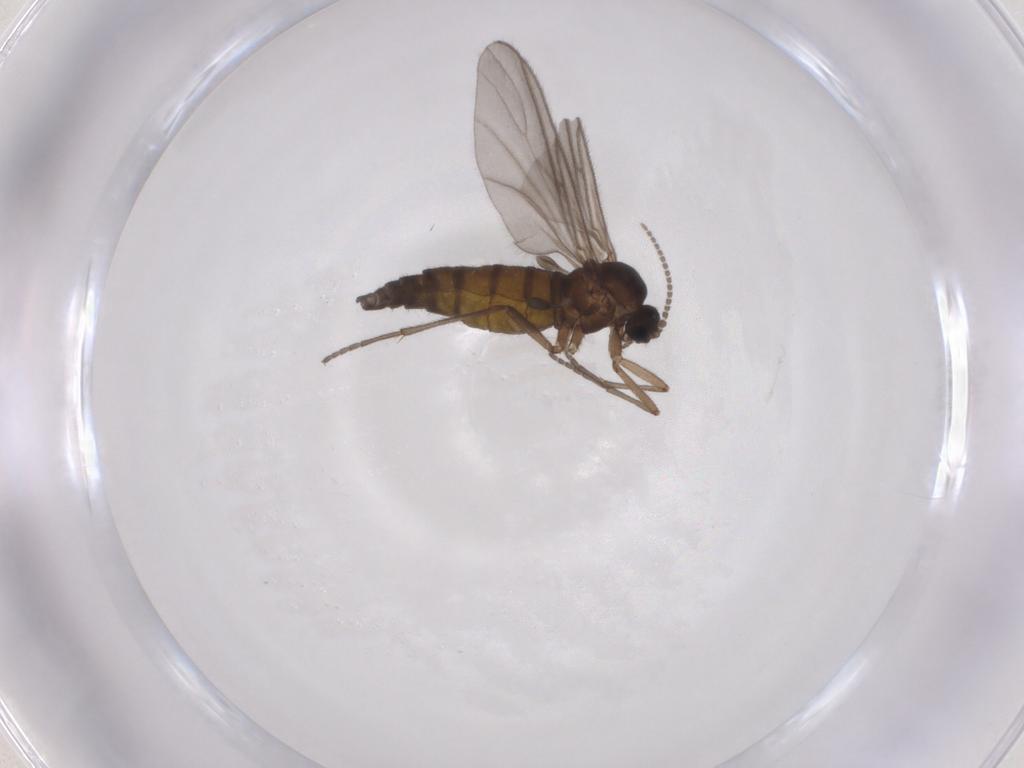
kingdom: Animalia
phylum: Arthropoda
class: Insecta
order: Diptera
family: Sciaridae
